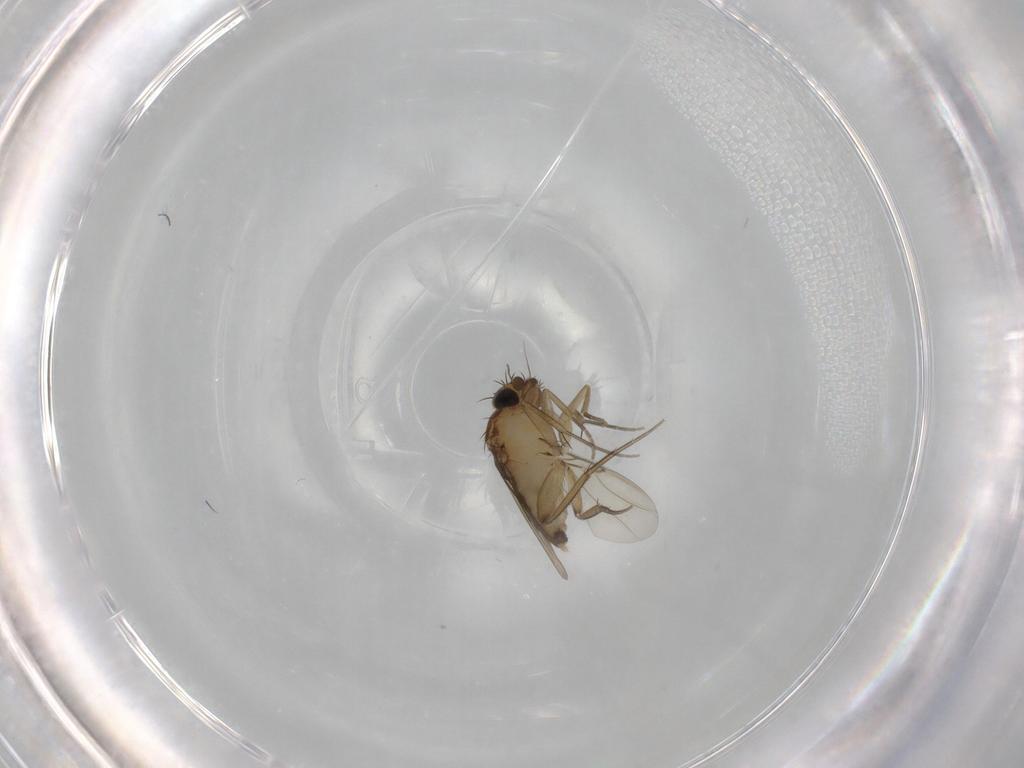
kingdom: Animalia
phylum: Arthropoda
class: Insecta
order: Diptera
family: Phoridae
